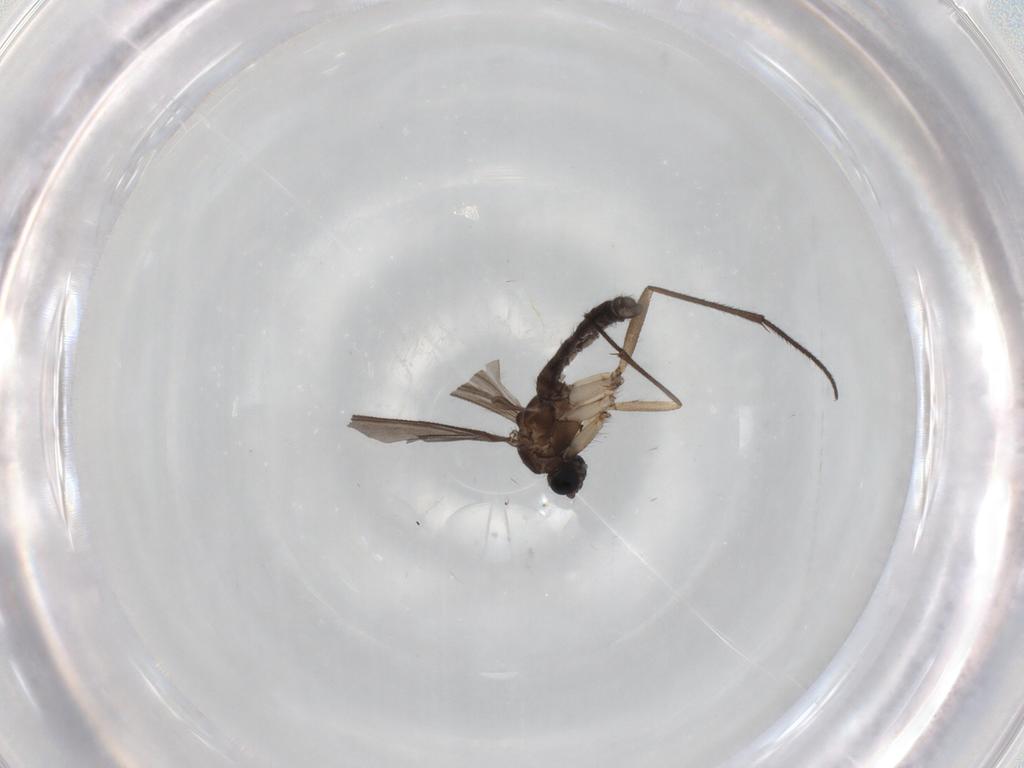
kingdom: Animalia
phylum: Arthropoda
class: Insecta
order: Diptera
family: Sciaridae
